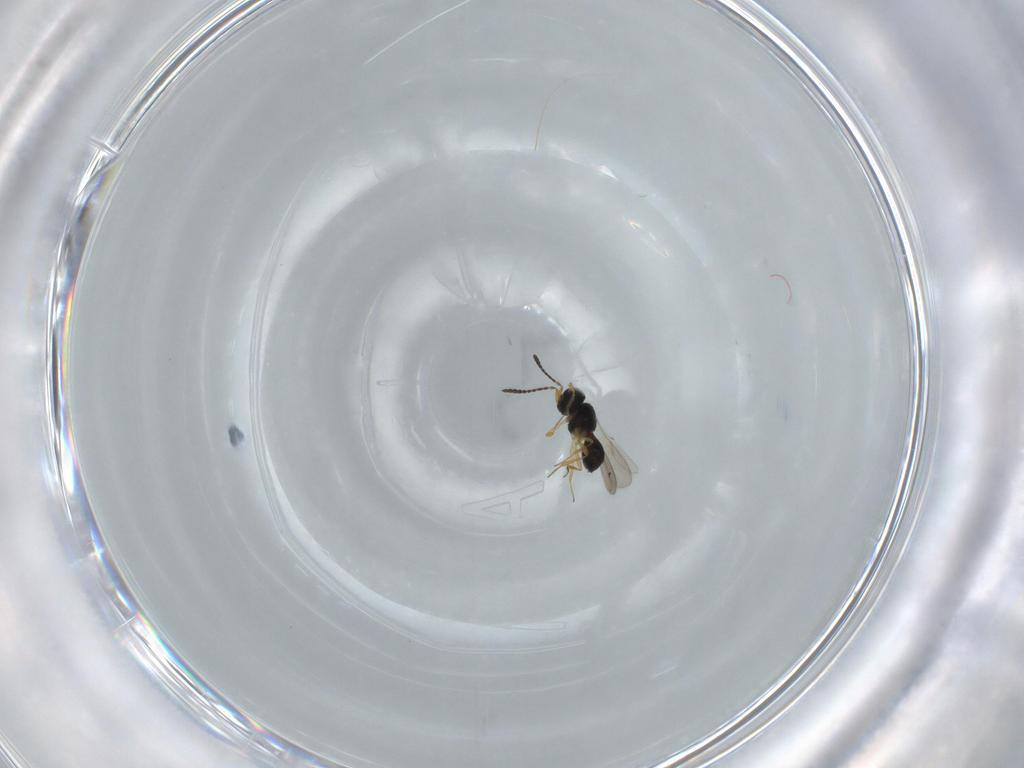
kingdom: Animalia
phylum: Arthropoda
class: Insecta
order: Hymenoptera
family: Scelionidae
